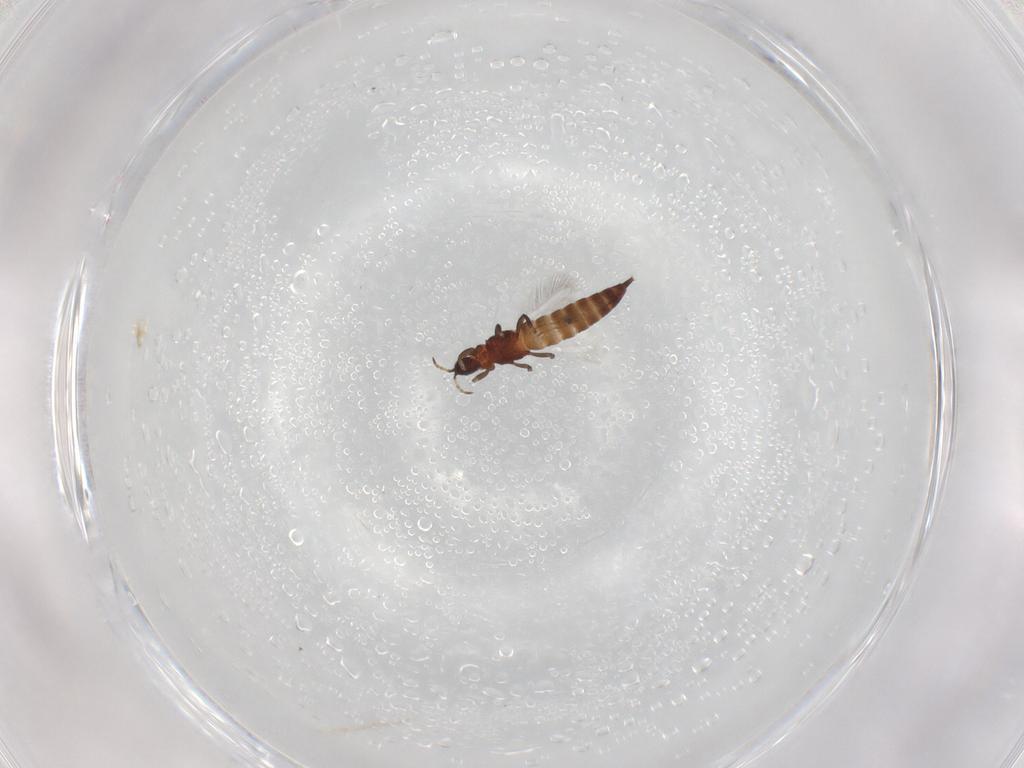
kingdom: Animalia
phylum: Arthropoda
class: Insecta
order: Thysanoptera
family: Phlaeothripidae
